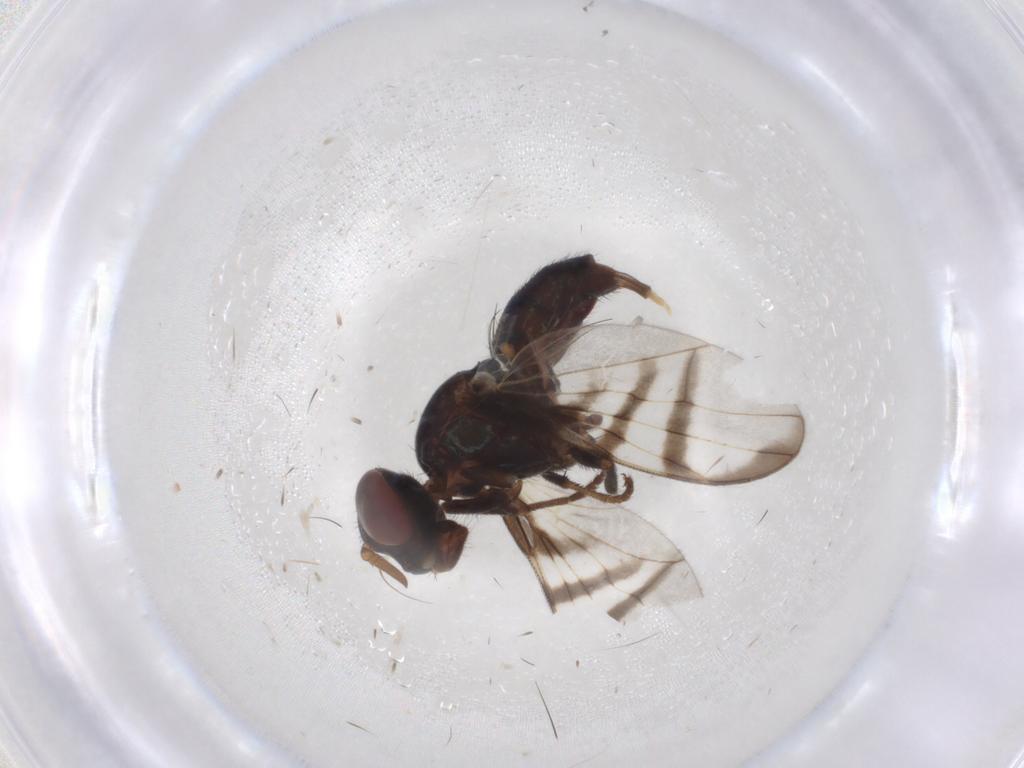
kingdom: Animalia
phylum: Arthropoda
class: Insecta
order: Diptera
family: Platystomatidae
